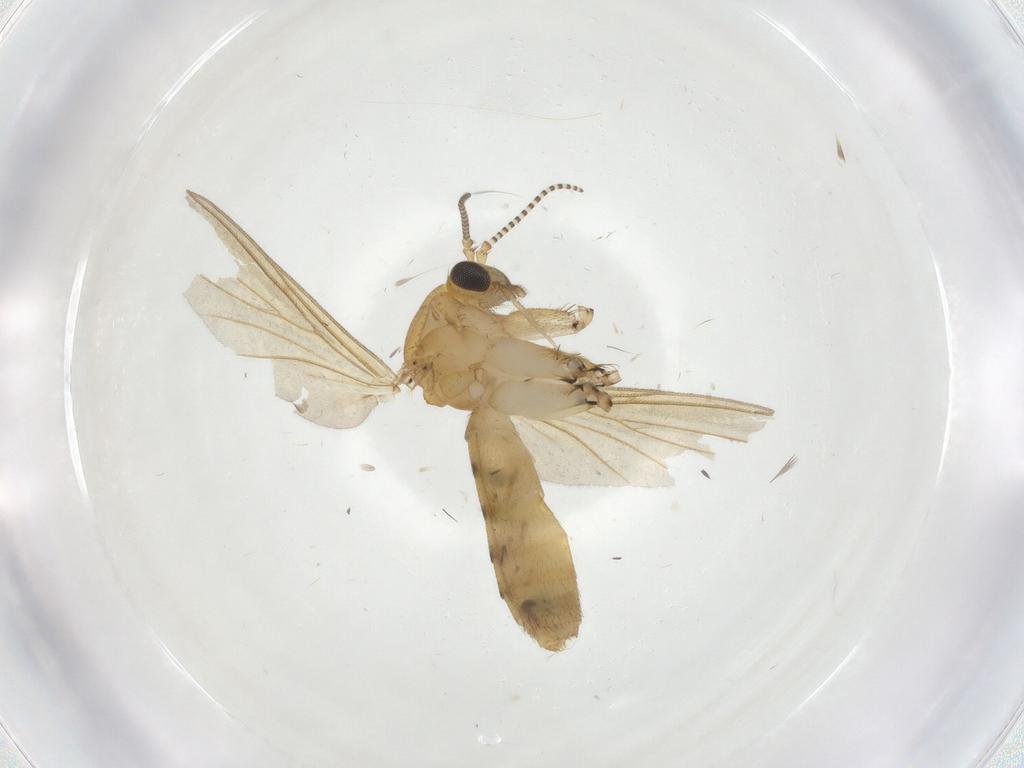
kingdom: Animalia
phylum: Arthropoda
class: Insecta
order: Diptera
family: Mycetophilidae
